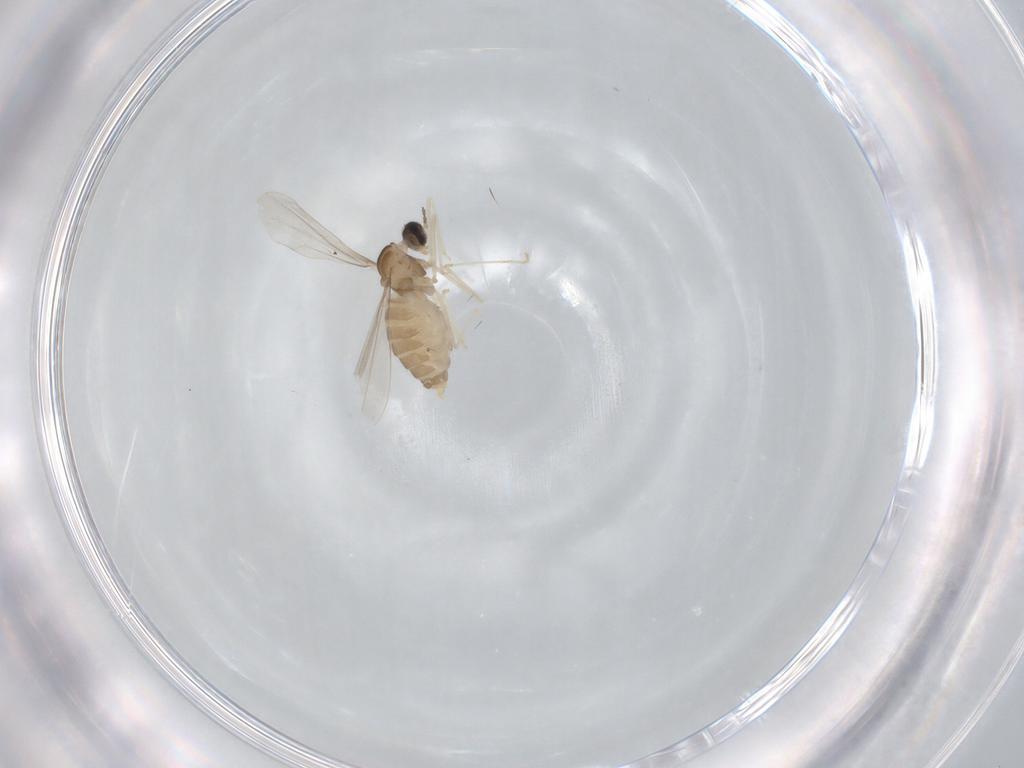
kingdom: Animalia
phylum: Arthropoda
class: Insecta
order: Diptera
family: Cecidomyiidae
